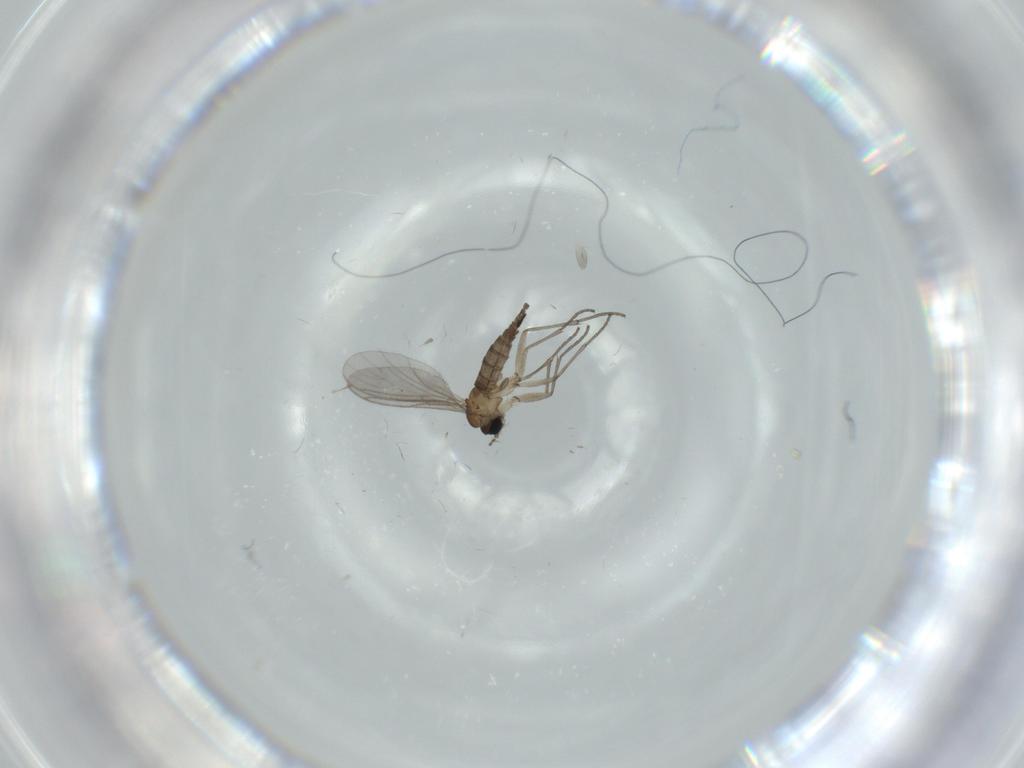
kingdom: Animalia
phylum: Arthropoda
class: Insecta
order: Diptera
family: Sciaridae
